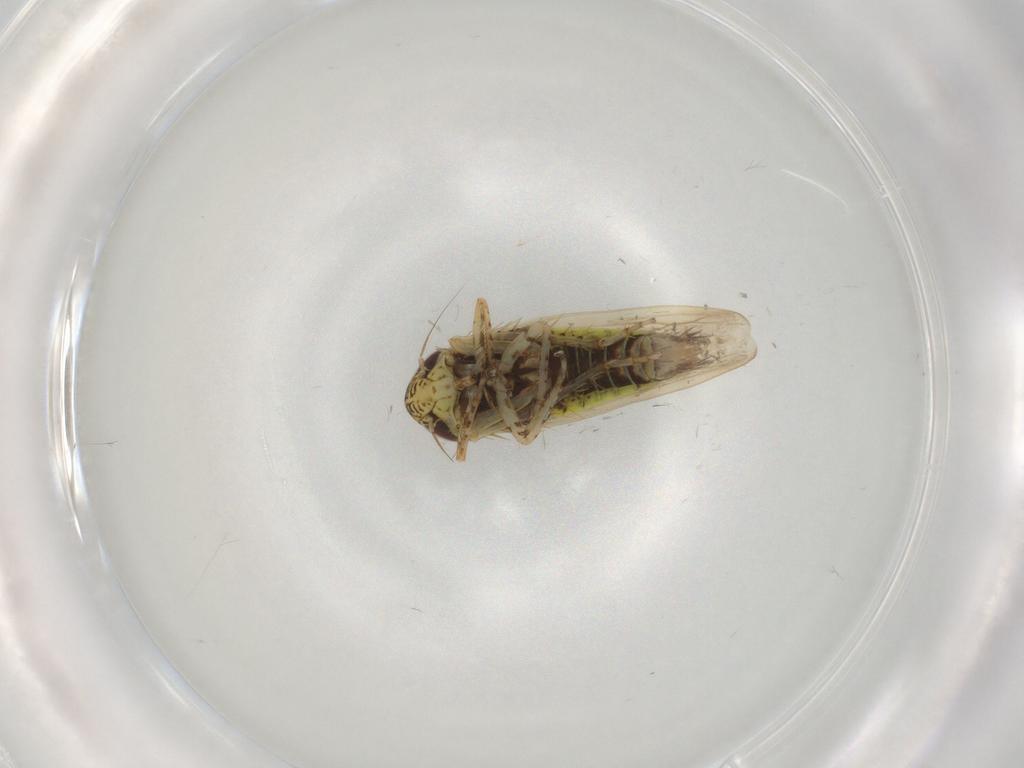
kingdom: Animalia
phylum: Arthropoda
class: Insecta
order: Hemiptera
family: Cicadellidae
